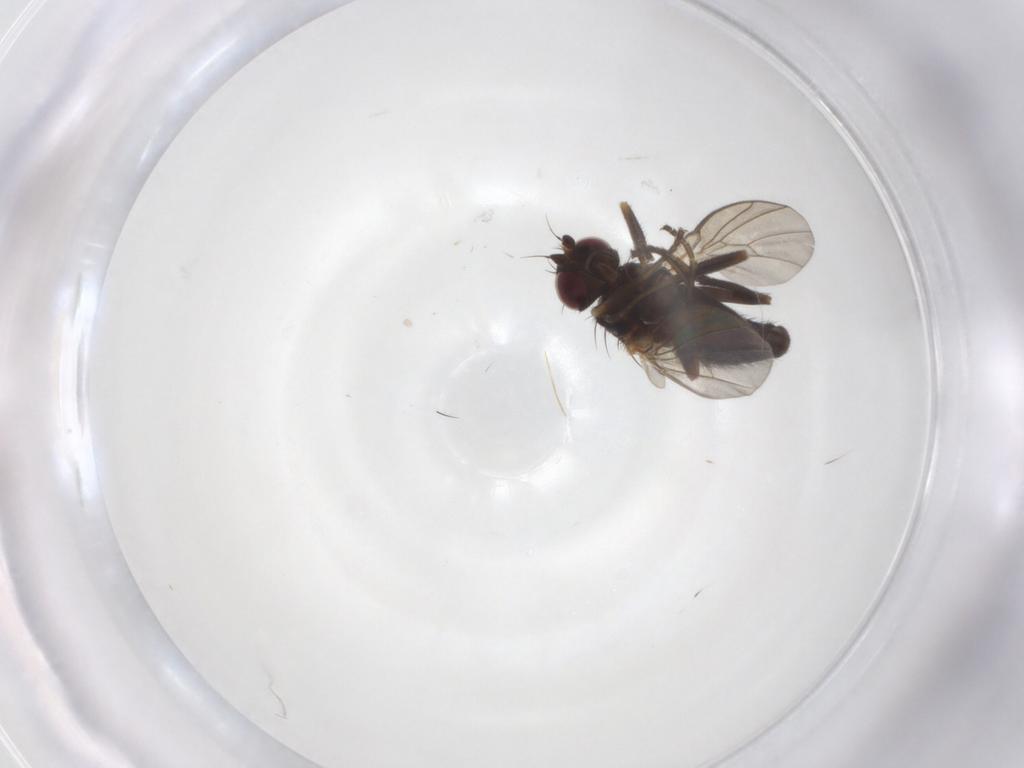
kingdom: Animalia
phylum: Arthropoda
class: Insecta
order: Diptera
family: Agromyzidae
